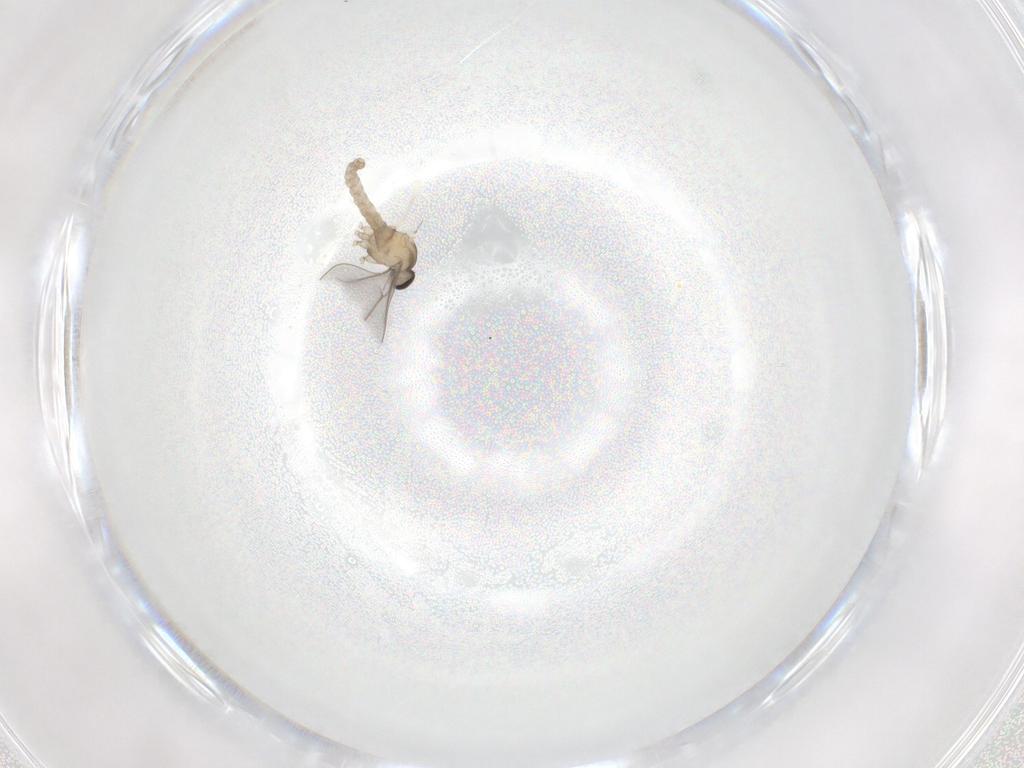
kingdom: Animalia
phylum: Arthropoda
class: Insecta
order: Diptera
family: Cecidomyiidae
